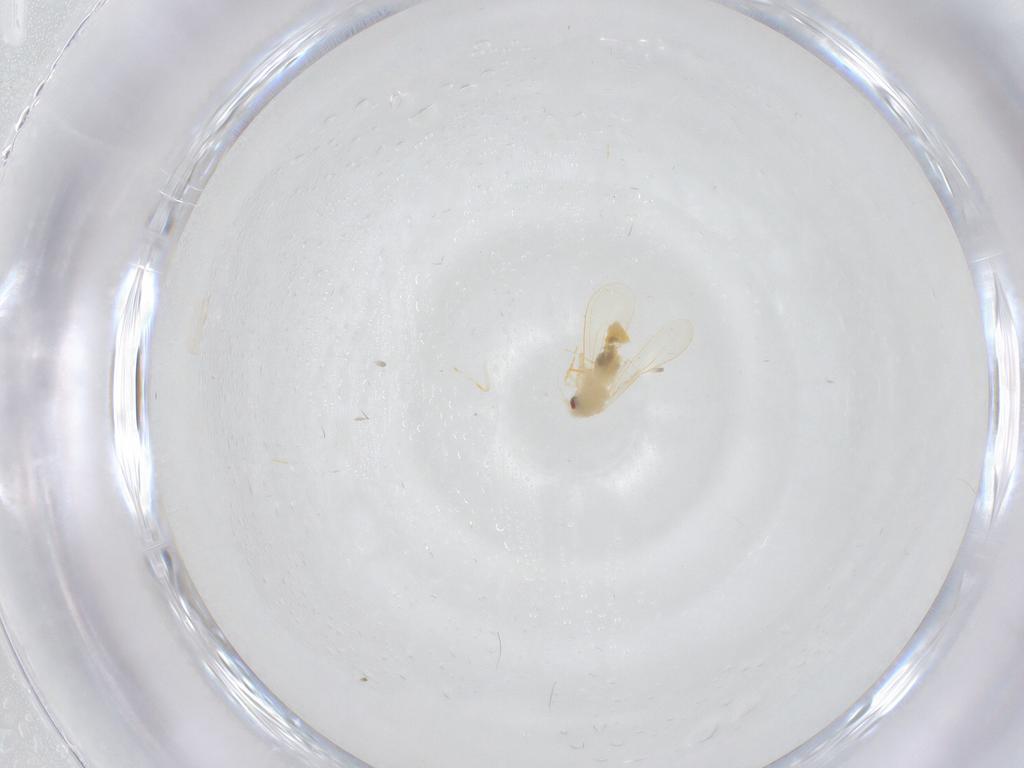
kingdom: Animalia
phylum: Arthropoda
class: Insecta
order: Hemiptera
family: Aleyrodidae
